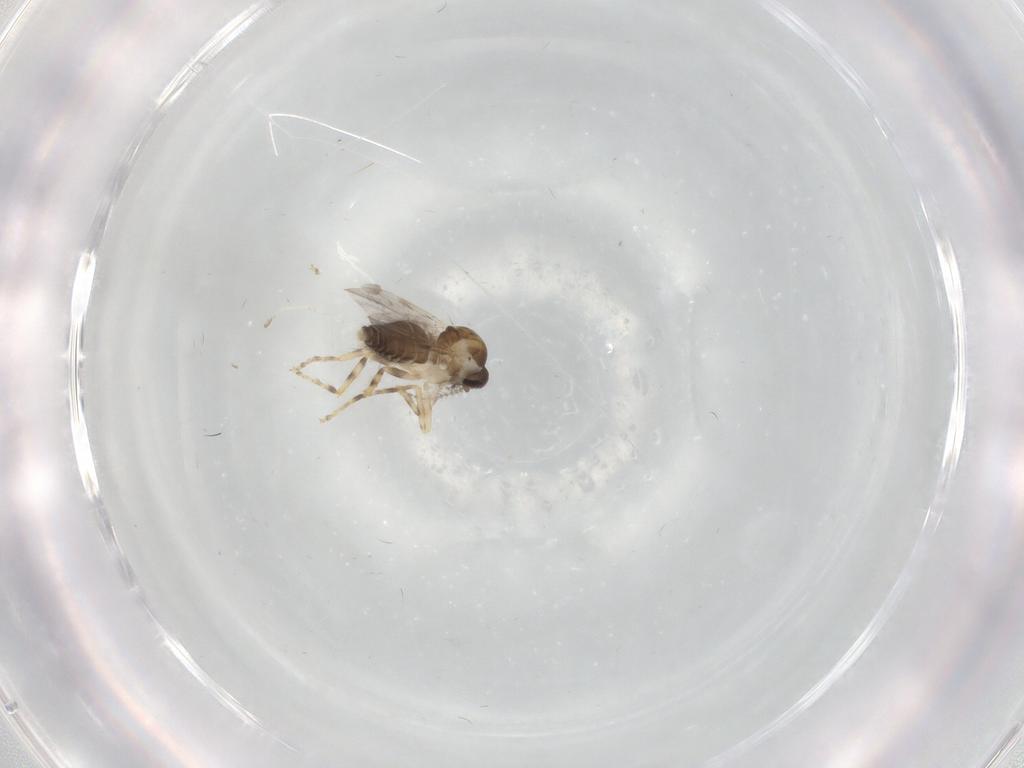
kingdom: Animalia
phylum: Arthropoda
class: Insecta
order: Diptera
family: Ceratopogonidae
